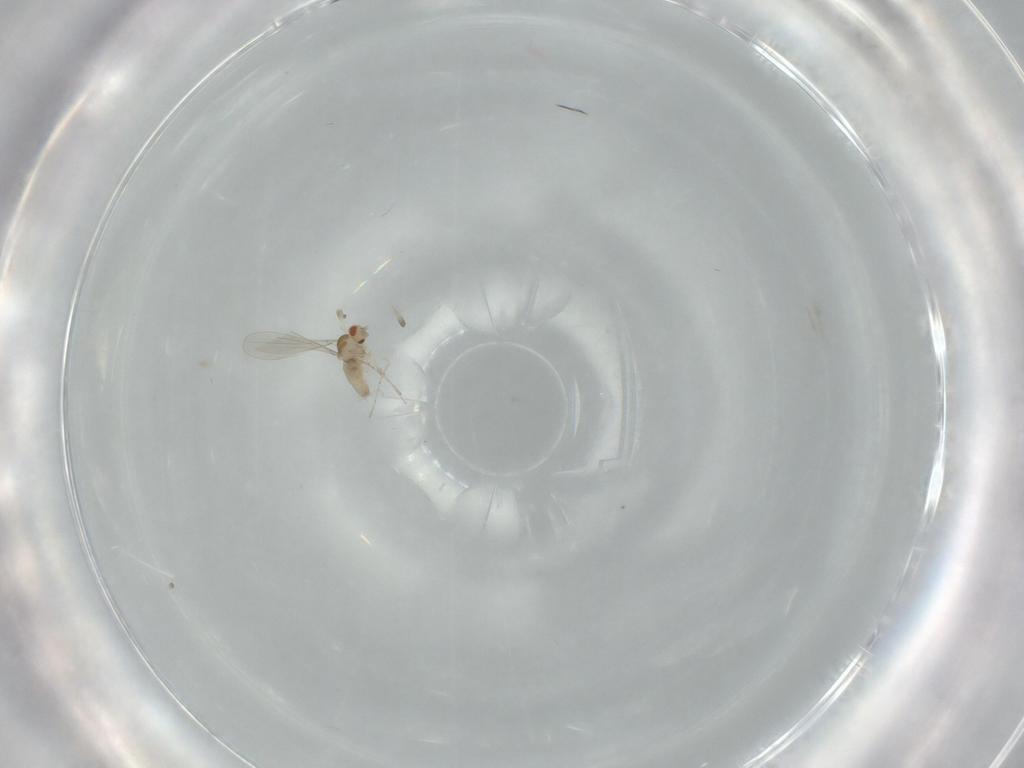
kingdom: Animalia
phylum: Arthropoda
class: Insecta
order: Diptera
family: Cecidomyiidae
